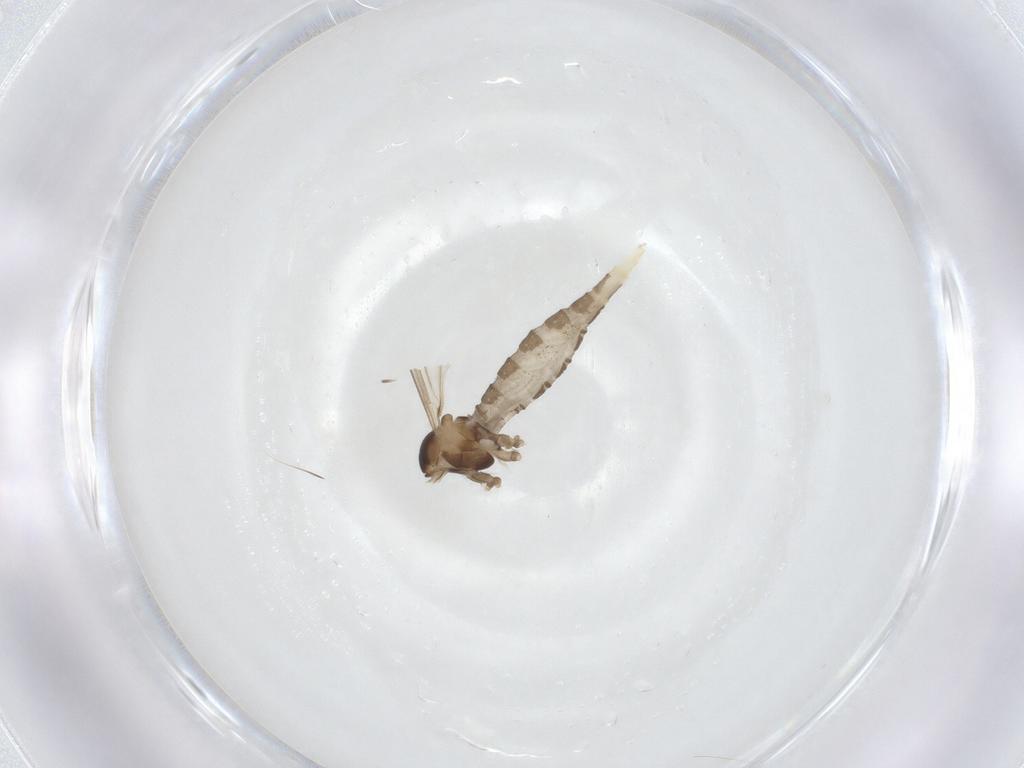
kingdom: Animalia
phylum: Arthropoda
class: Insecta
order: Diptera
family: Cecidomyiidae
